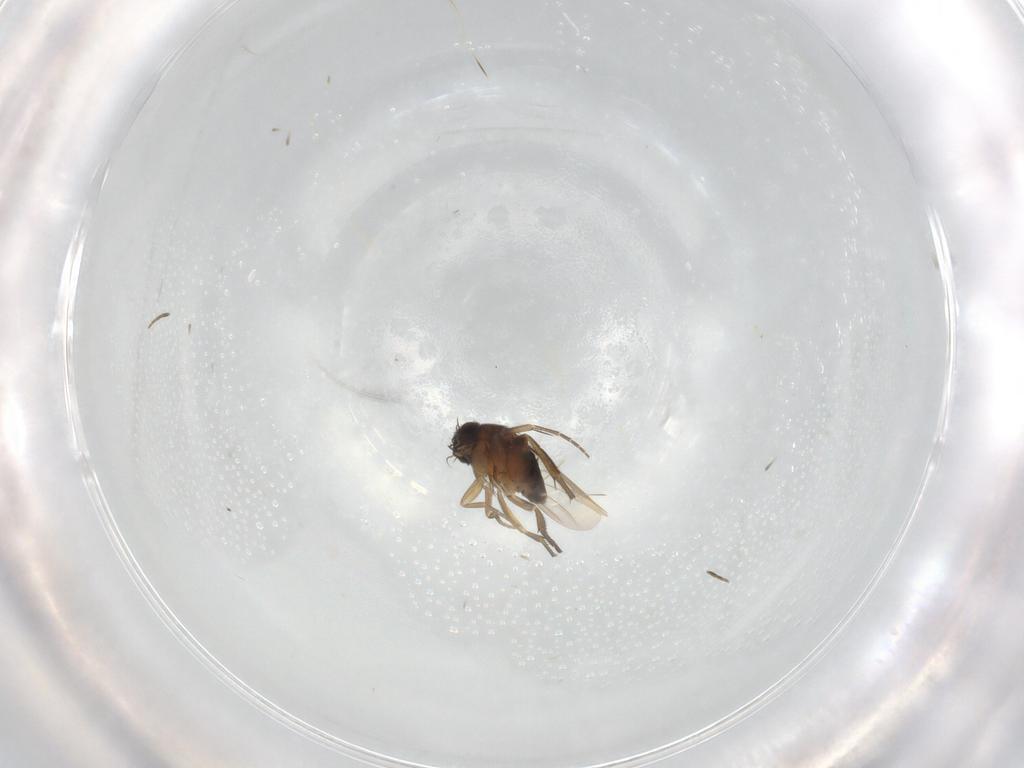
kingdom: Animalia
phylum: Arthropoda
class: Insecta
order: Diptera
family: Phoridae
